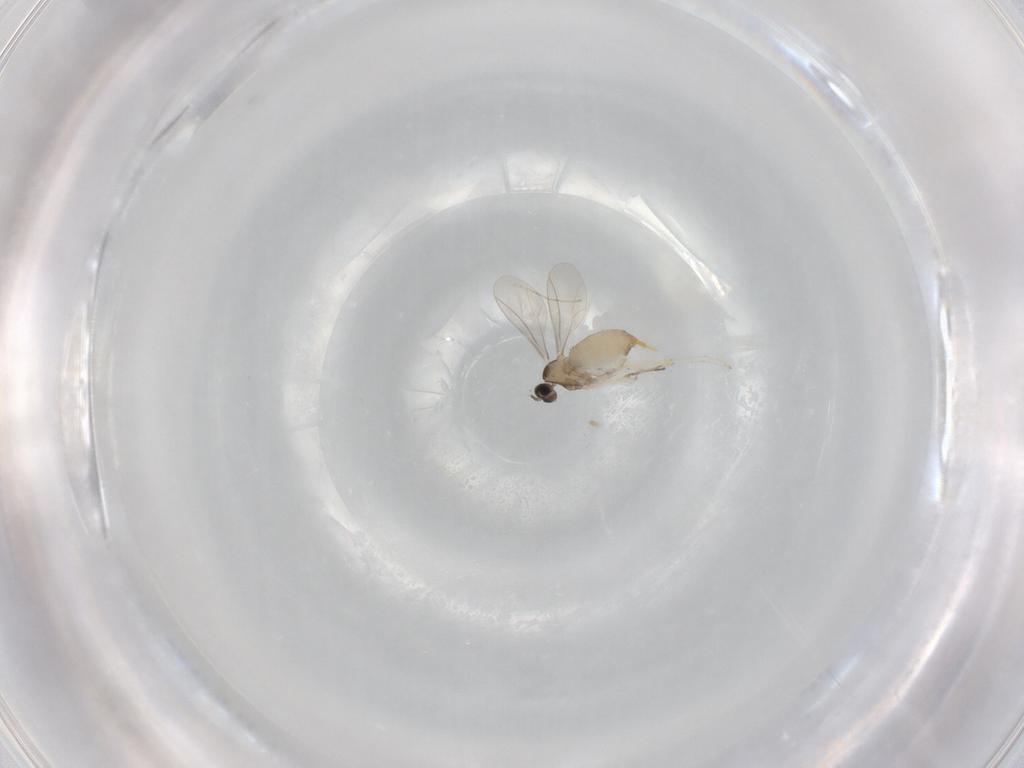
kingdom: Animalia
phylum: Arthropoda
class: Insecta
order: Diptera
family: Cecidomyiidae
